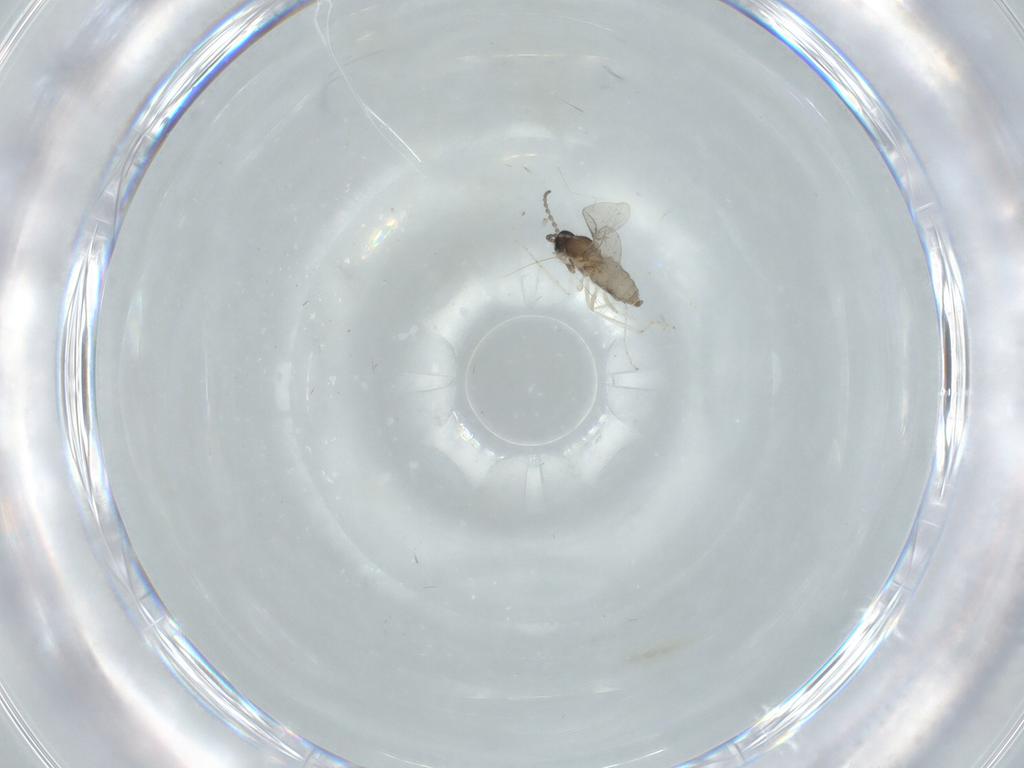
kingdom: Animalia
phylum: Arthropoda
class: Insecta
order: Diptera
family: Cecidomyiidae
